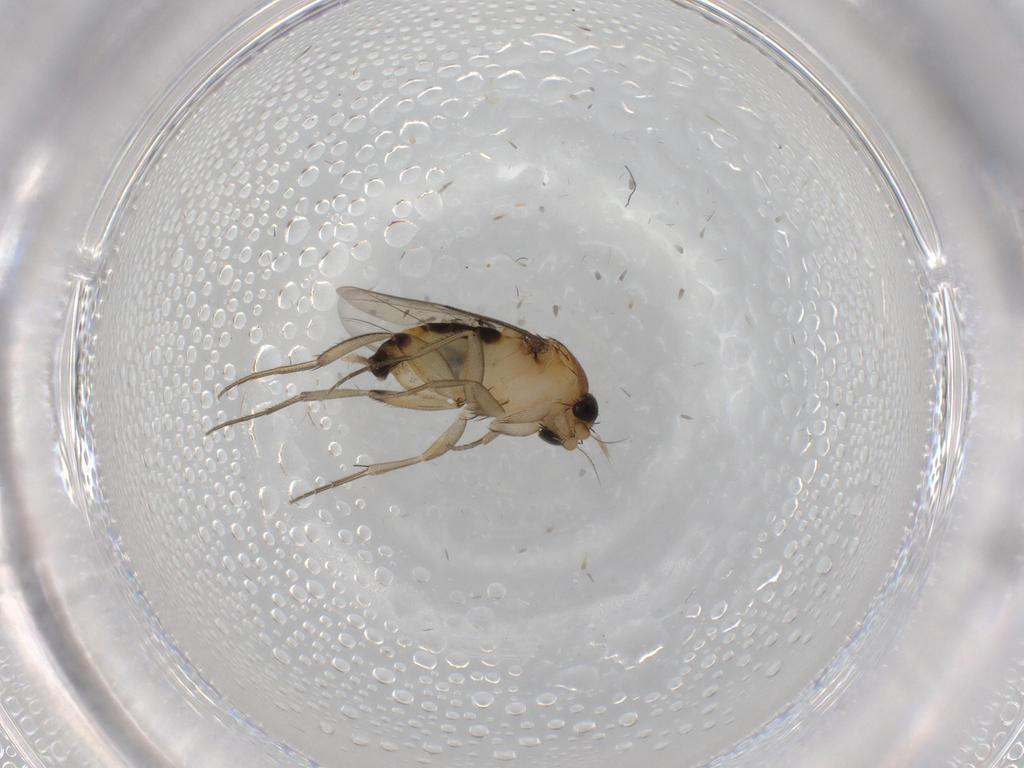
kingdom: Animalia
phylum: Arthropoda
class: Insecta
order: Diptera
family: Phoridae
